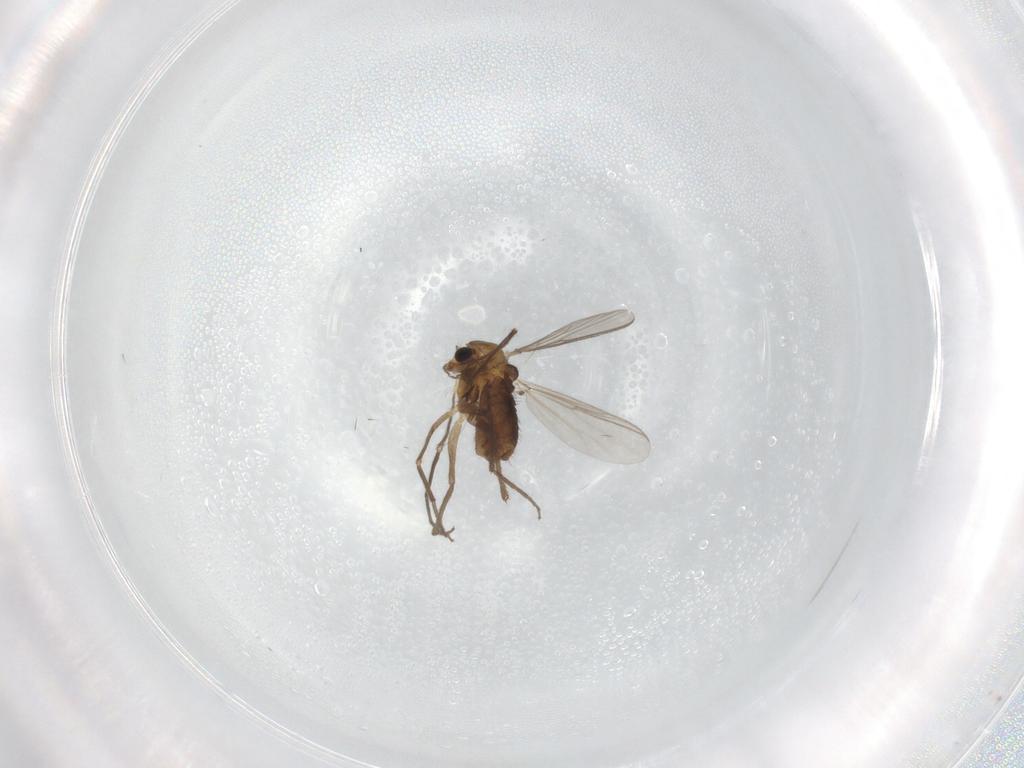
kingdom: Animalia
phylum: Arthropoda
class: Insecta
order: Diptera
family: Chironomidae
